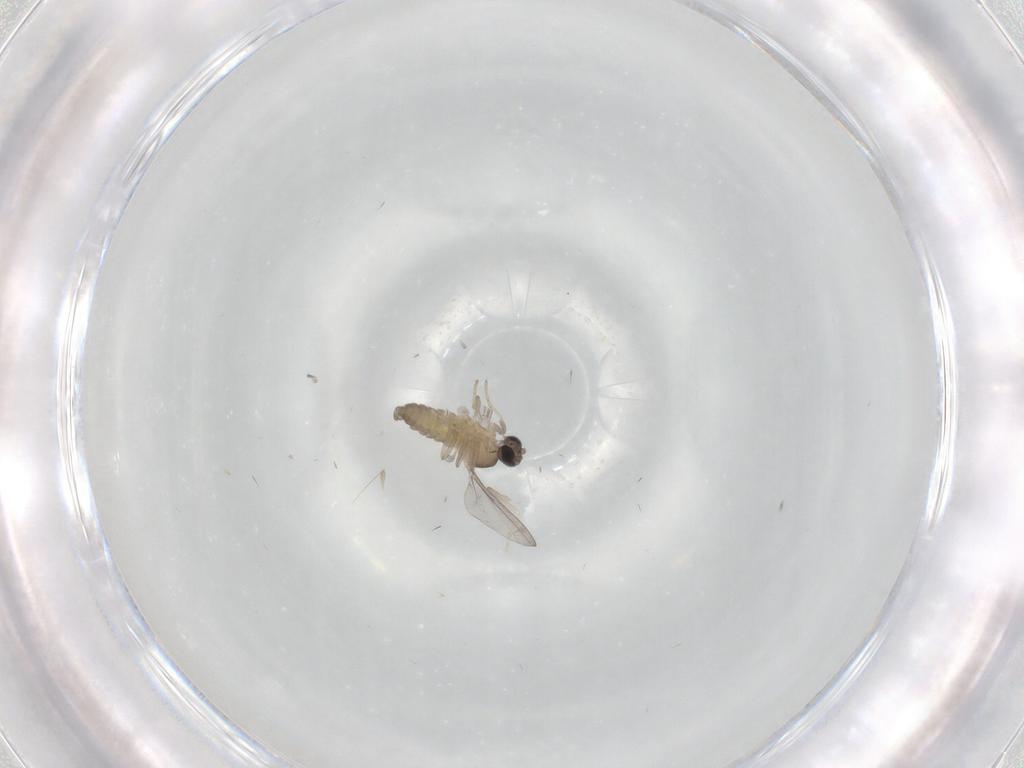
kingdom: Animalia
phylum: Arthropoda
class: Insecta
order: Diptera
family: Cecidomyiidae
